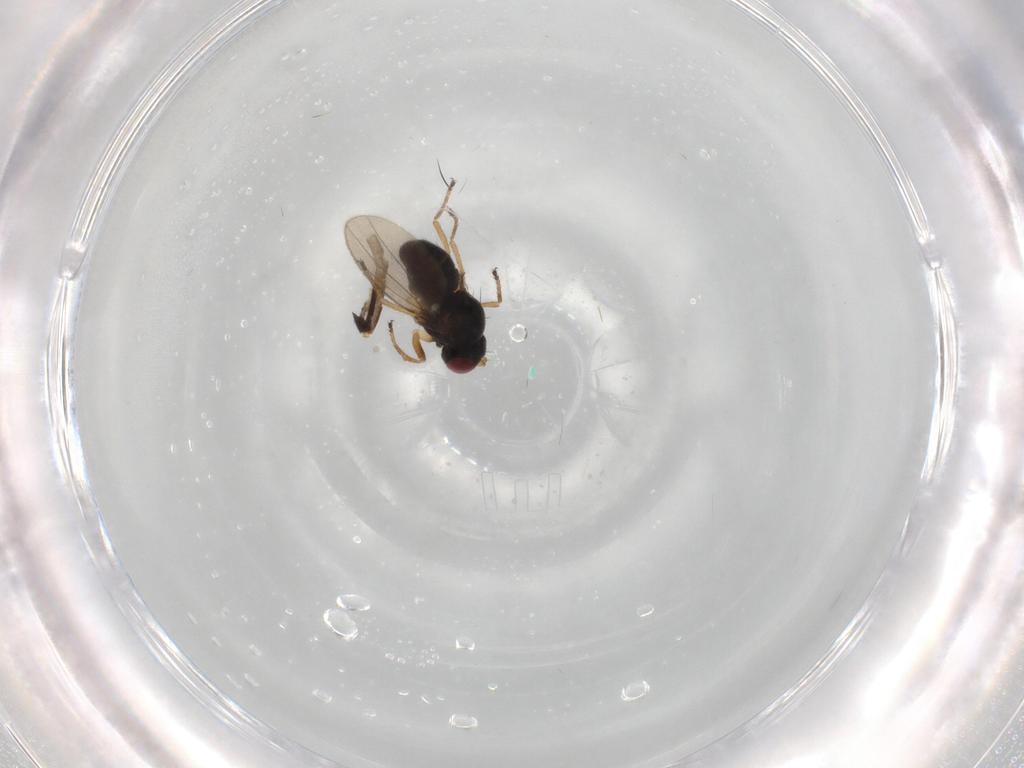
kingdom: Animalia
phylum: Arthropoda
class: Insecta
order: Diptera
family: Ephydridae
